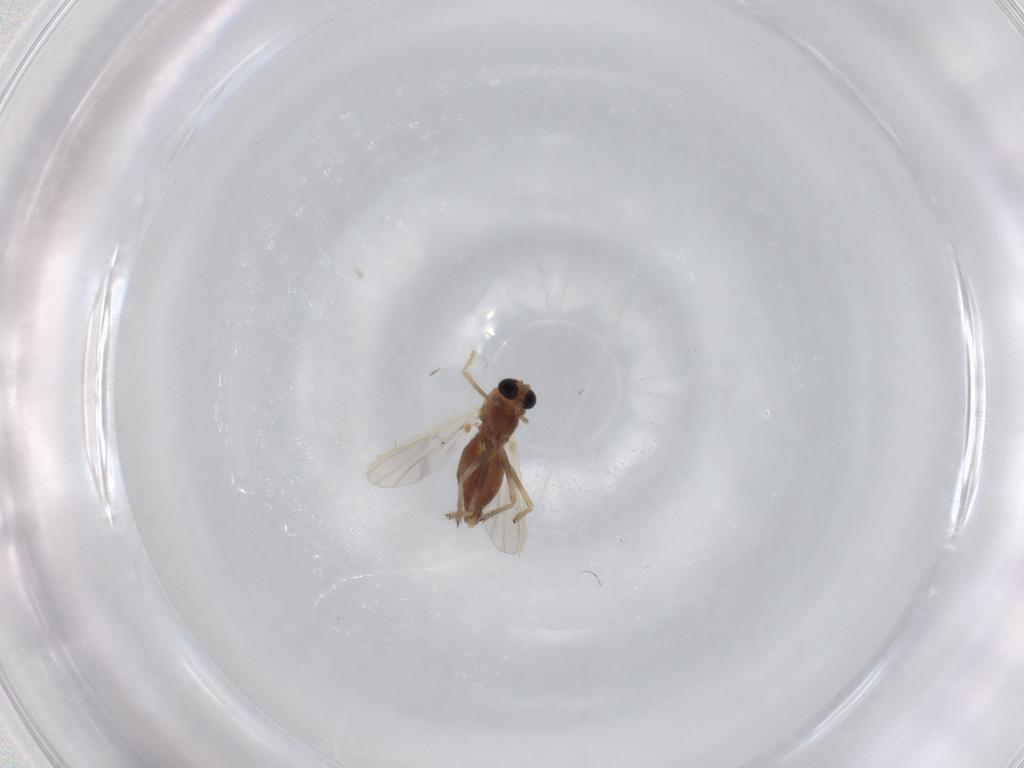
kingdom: Animalia
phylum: Arthropoda
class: Insecta
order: Diptera
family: Chironomidae
